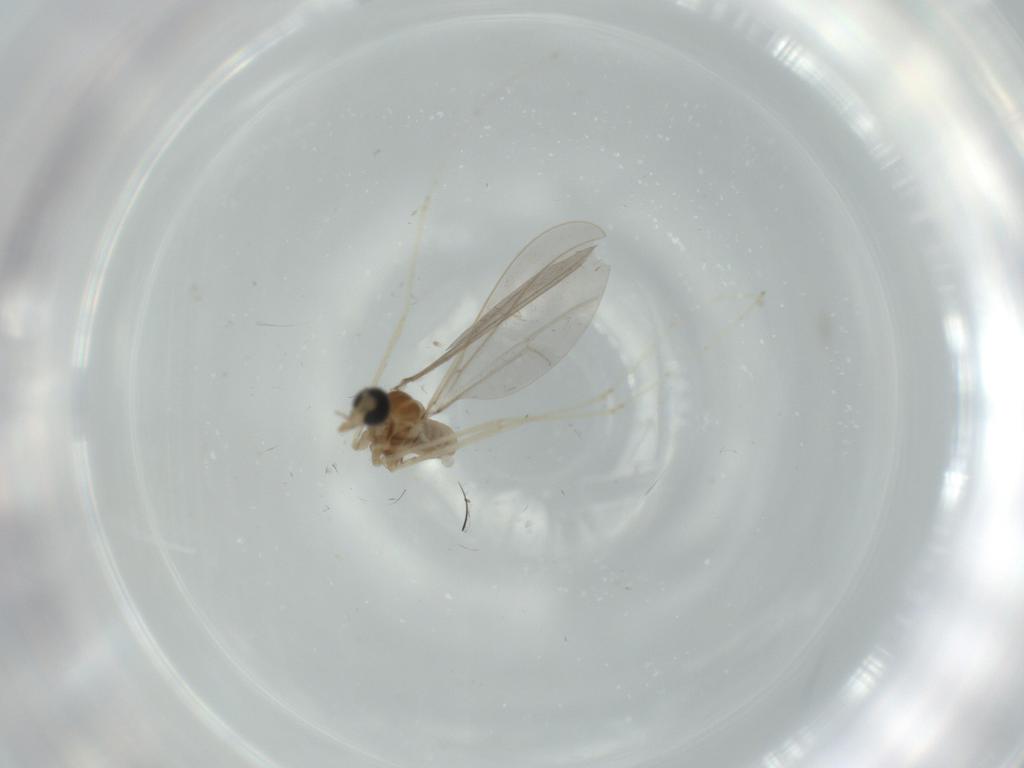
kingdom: Animalia
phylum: Arthropoda
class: Insecta
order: Diptera
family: Cecidomyiidae
